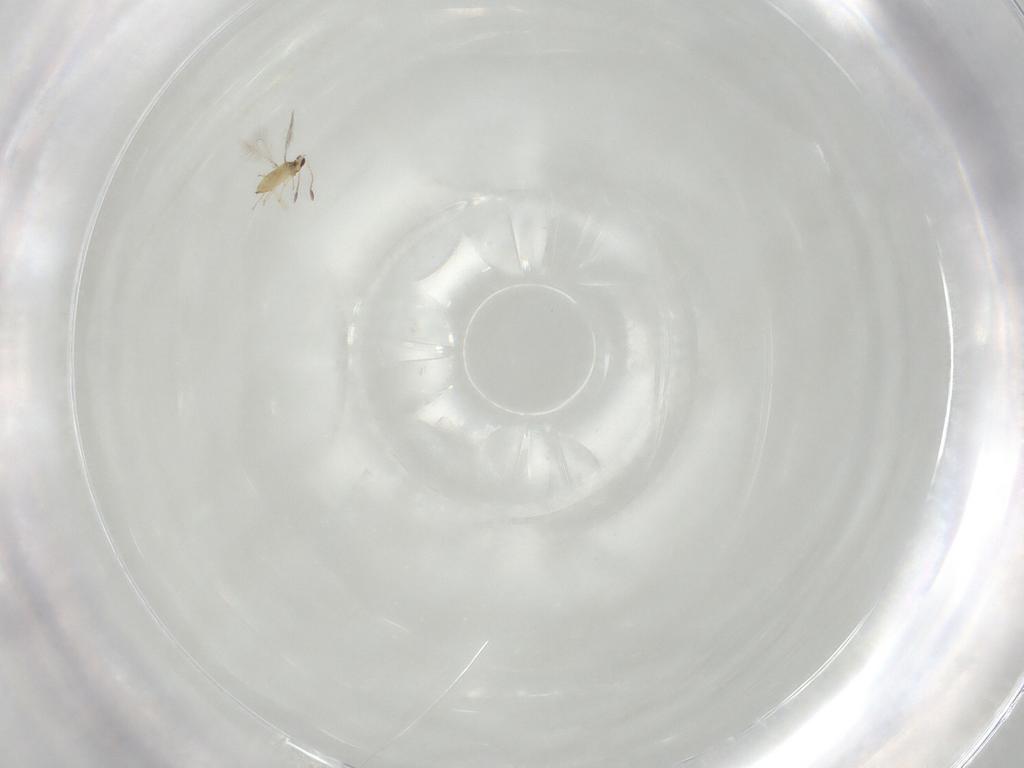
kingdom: Animalia
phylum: Arthropoda
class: Insecta
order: Hymenoptera
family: Mymaridae
